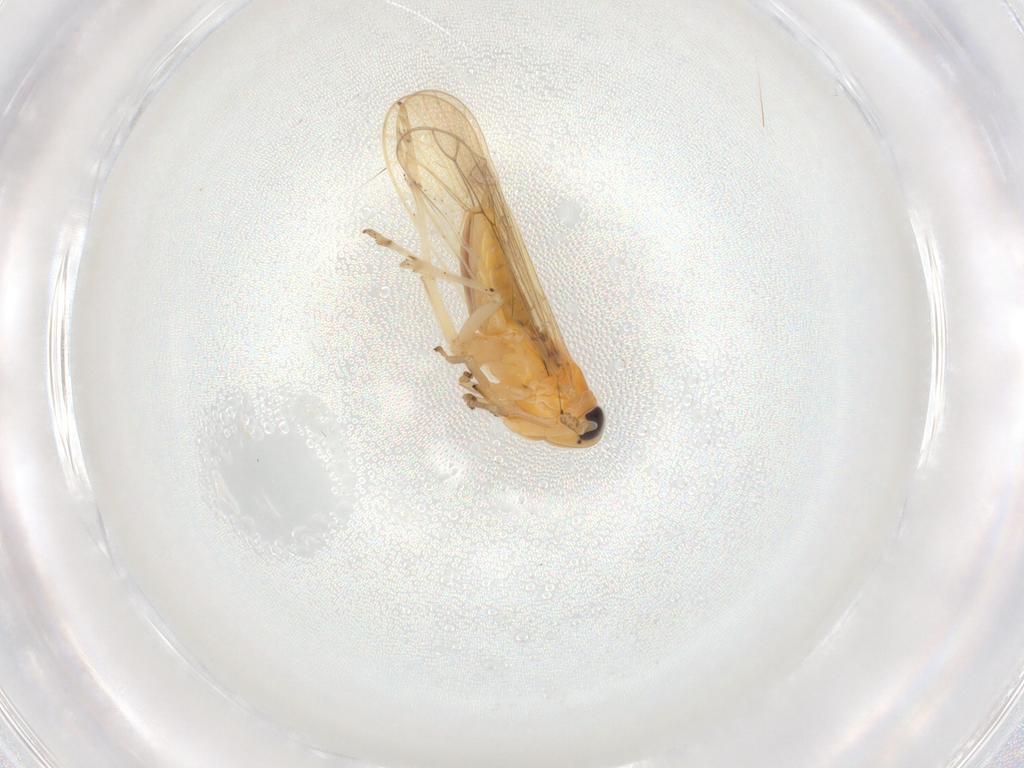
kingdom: Animalia
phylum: Arthropoda
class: Insecta
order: Hemiptera
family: Delphacidae
